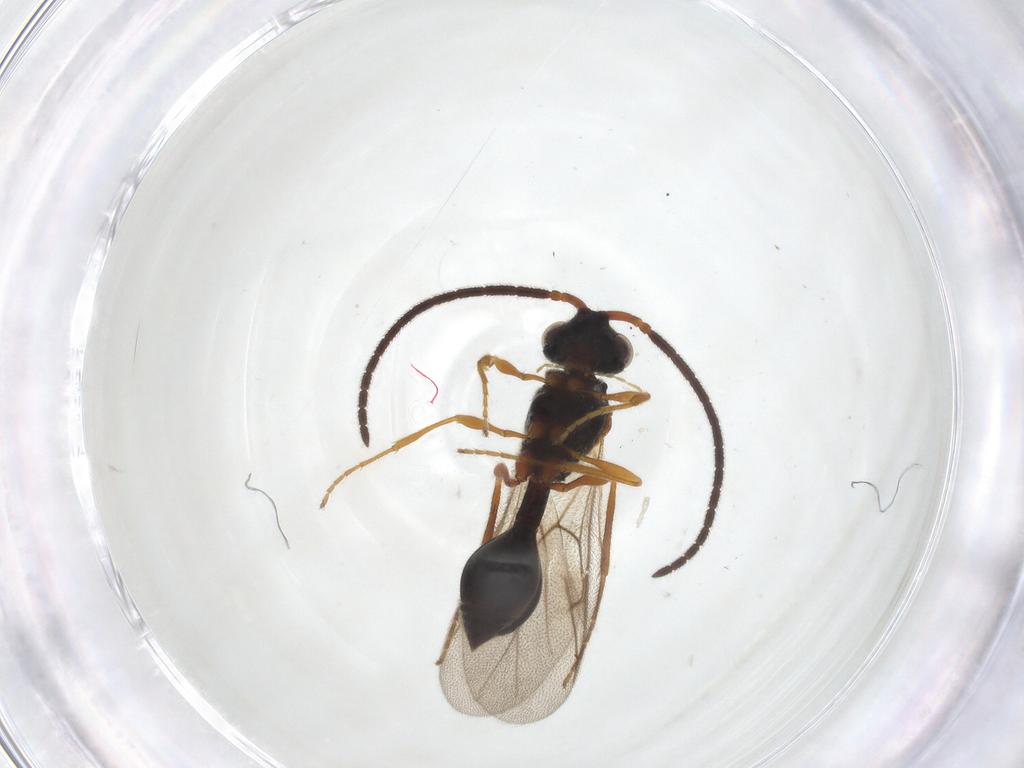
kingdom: Animalia
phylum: Arthropoda
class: Insecta
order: Hymenoptera
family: Diapriidae
